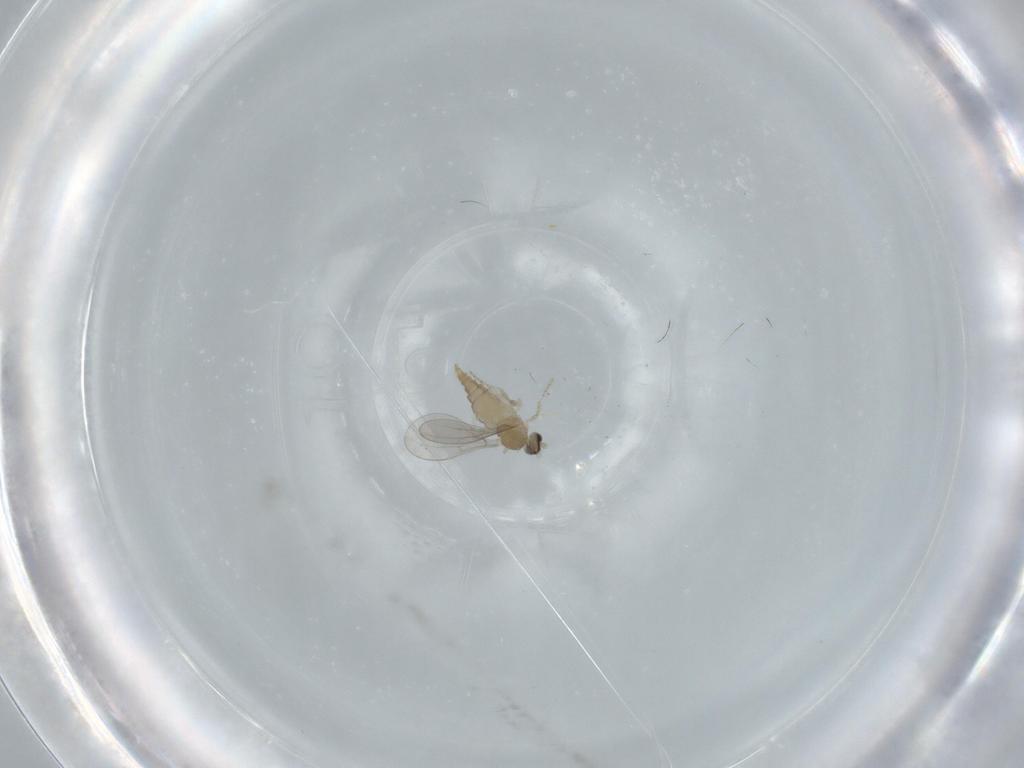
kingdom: Animalia
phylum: Arthropoda
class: Insecta
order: Diptera
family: Cecidomyiidae
